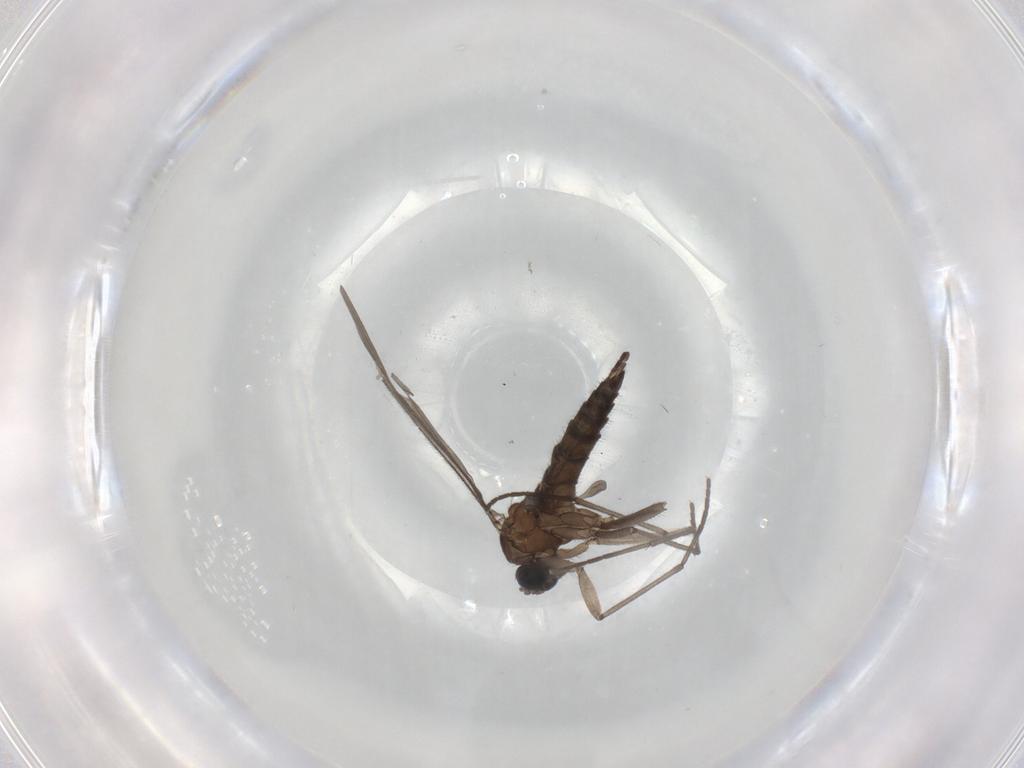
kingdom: Animalia
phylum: Arthropoda
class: Insecta
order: Diptera
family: Sciaridae
